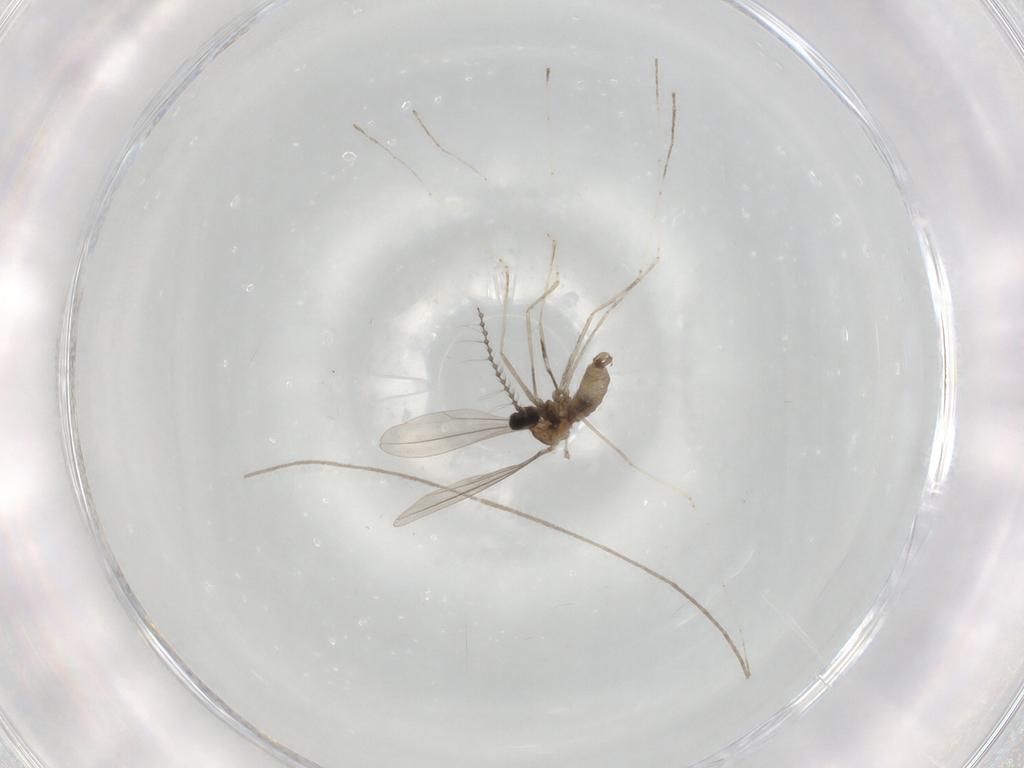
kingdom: Animalia
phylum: Arthropoda
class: Insecta
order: Diptera
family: Cecidomyiidae
